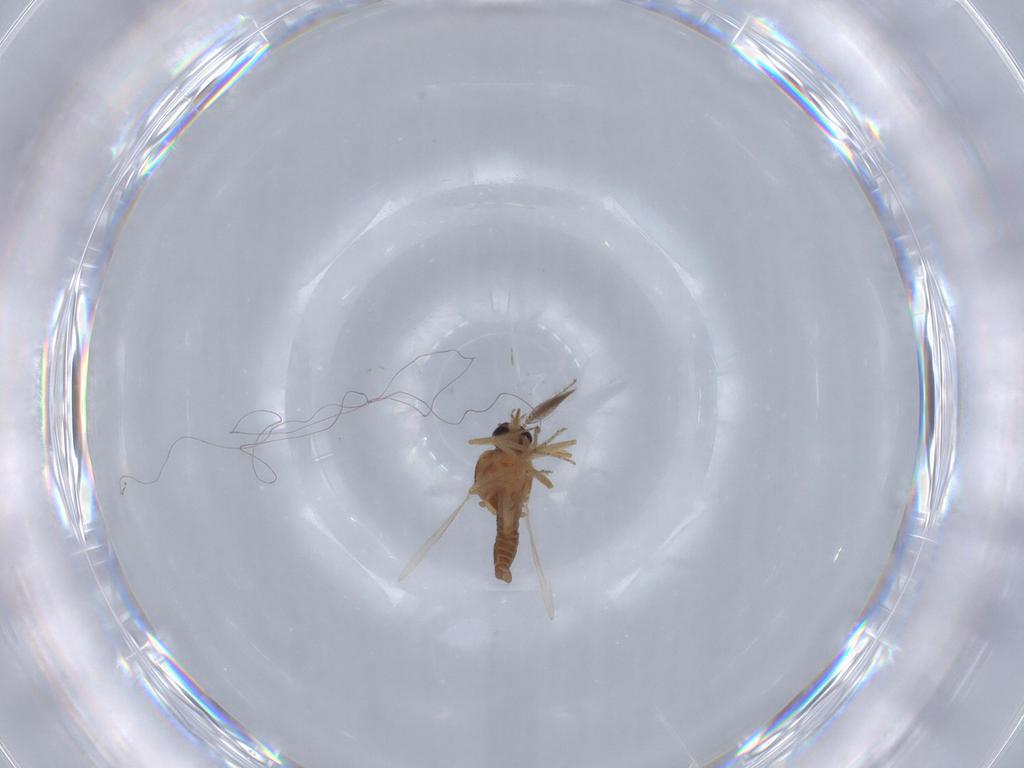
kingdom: Animalia
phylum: Arthropoda
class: Insecta
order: Diptera
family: Ceratopogonidae
